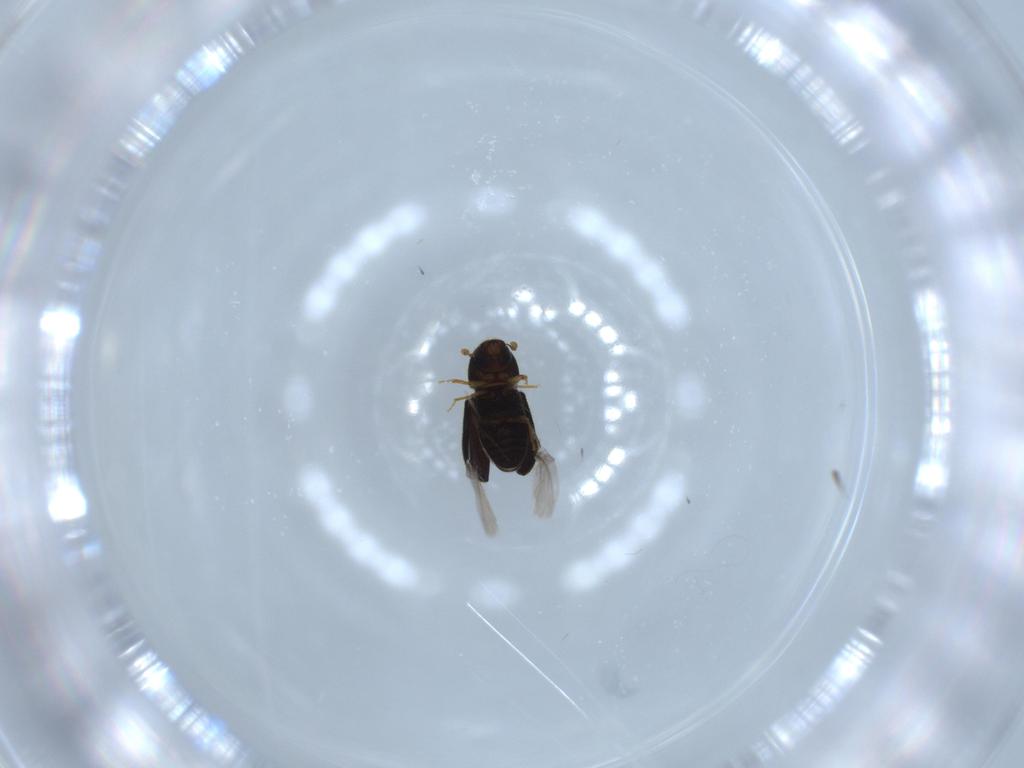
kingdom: Animalia
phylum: Arthropoda
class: Insecta
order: Coleoptera
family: Curculionidae
